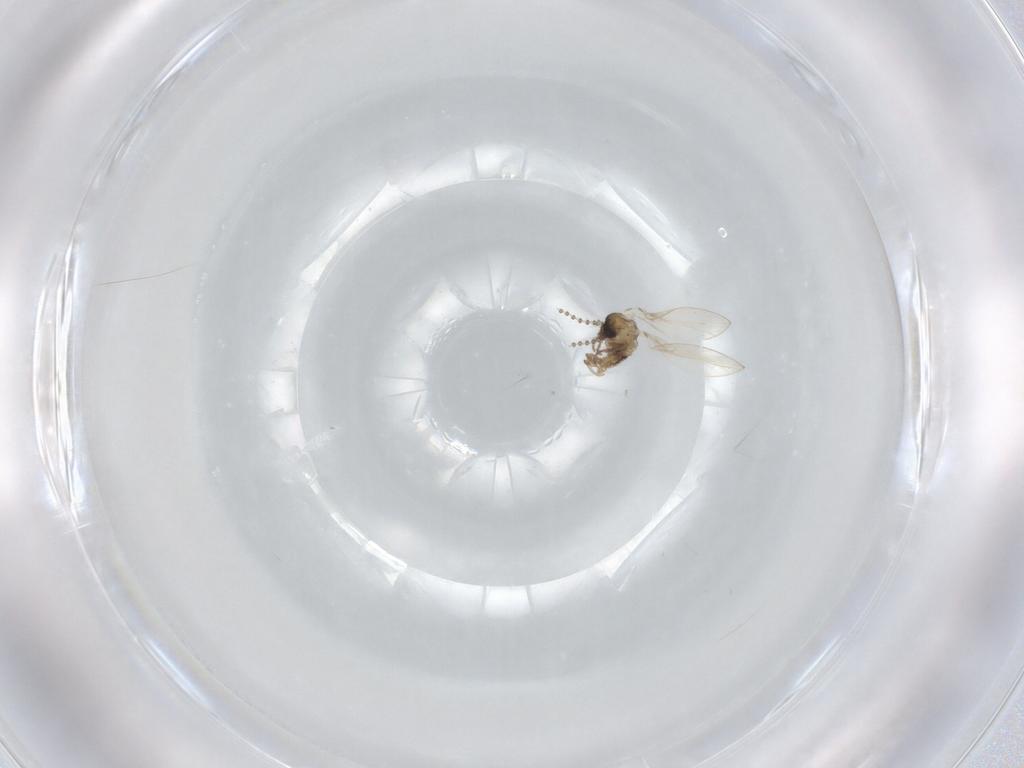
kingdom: Animalia
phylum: Arthropoda
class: Insecta
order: Diptera
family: Psychodidae
